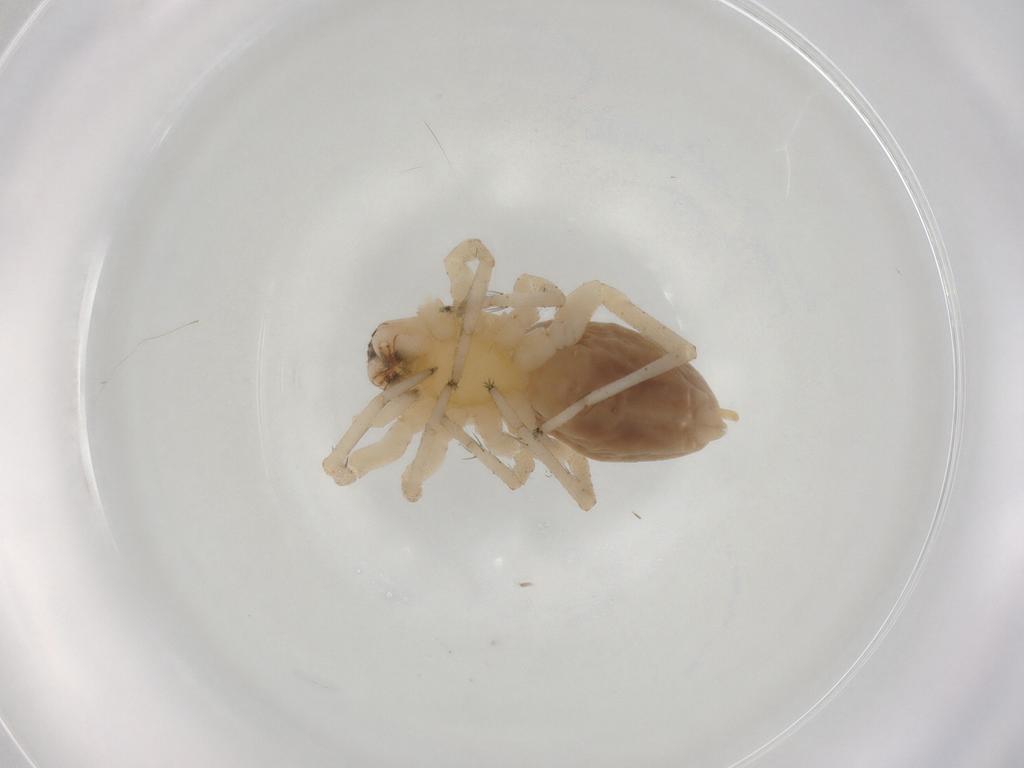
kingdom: Animalia
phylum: Arthropoda
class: Arachnida
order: Araneae
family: Anyphaenidae
